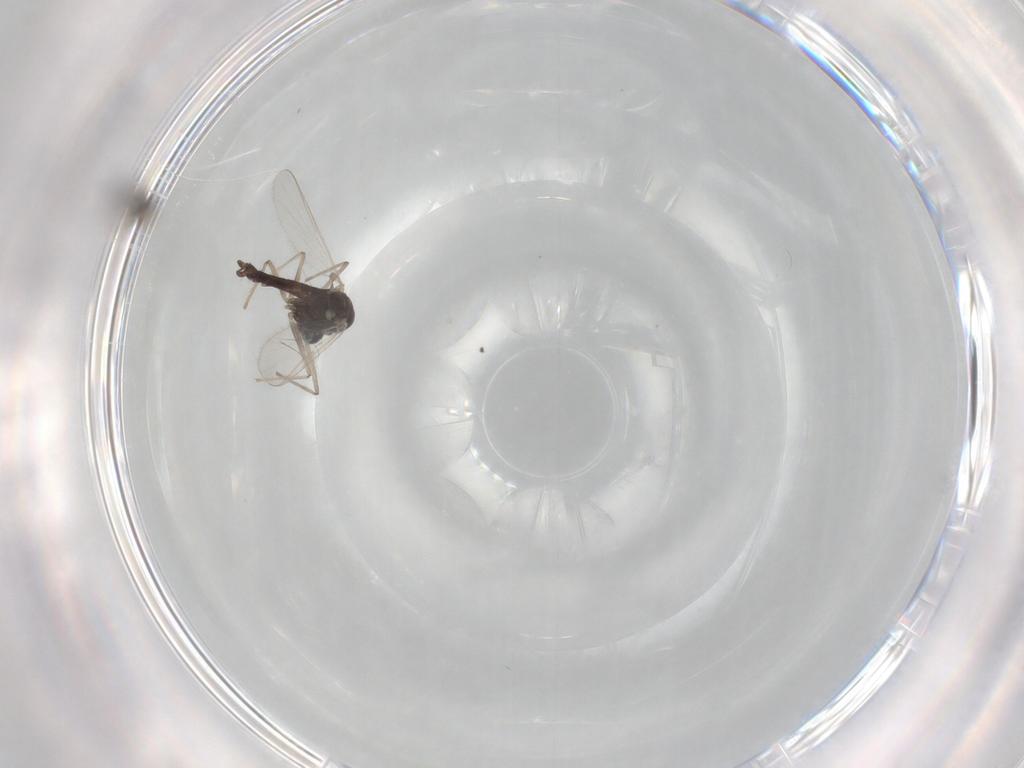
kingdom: Animalia
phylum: Arthropoda
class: Insecta
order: Diptera
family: Chironomidae
